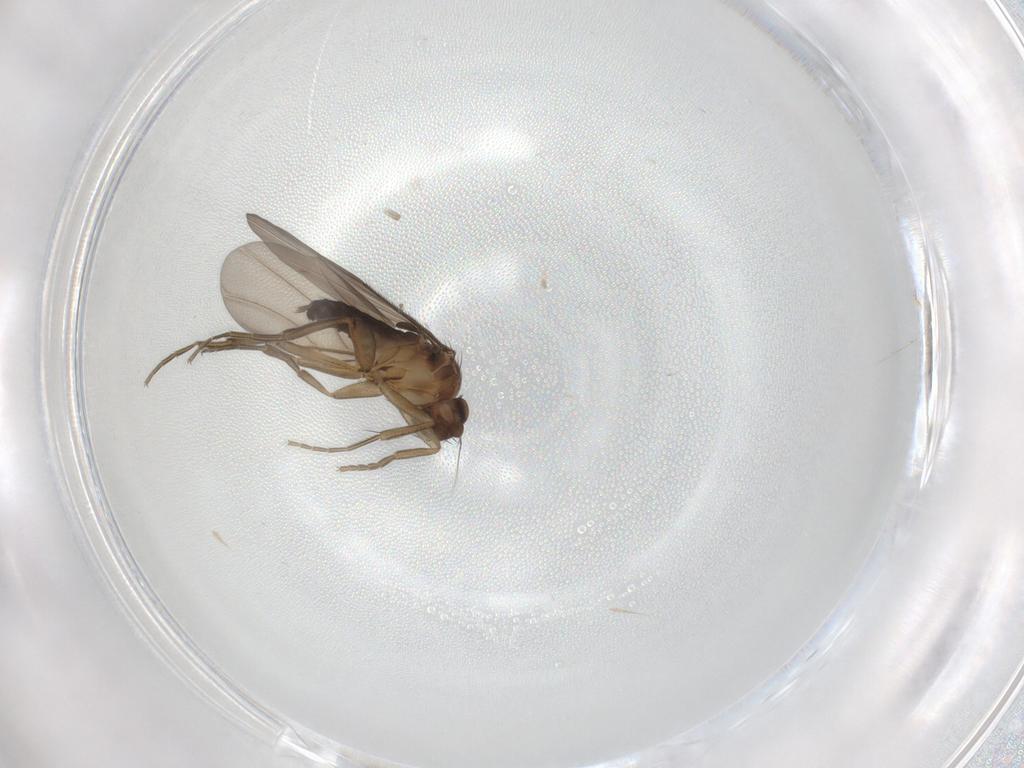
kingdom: Animalia
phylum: Arthropoda
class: Insecta
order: Diptera
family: Phoridae
